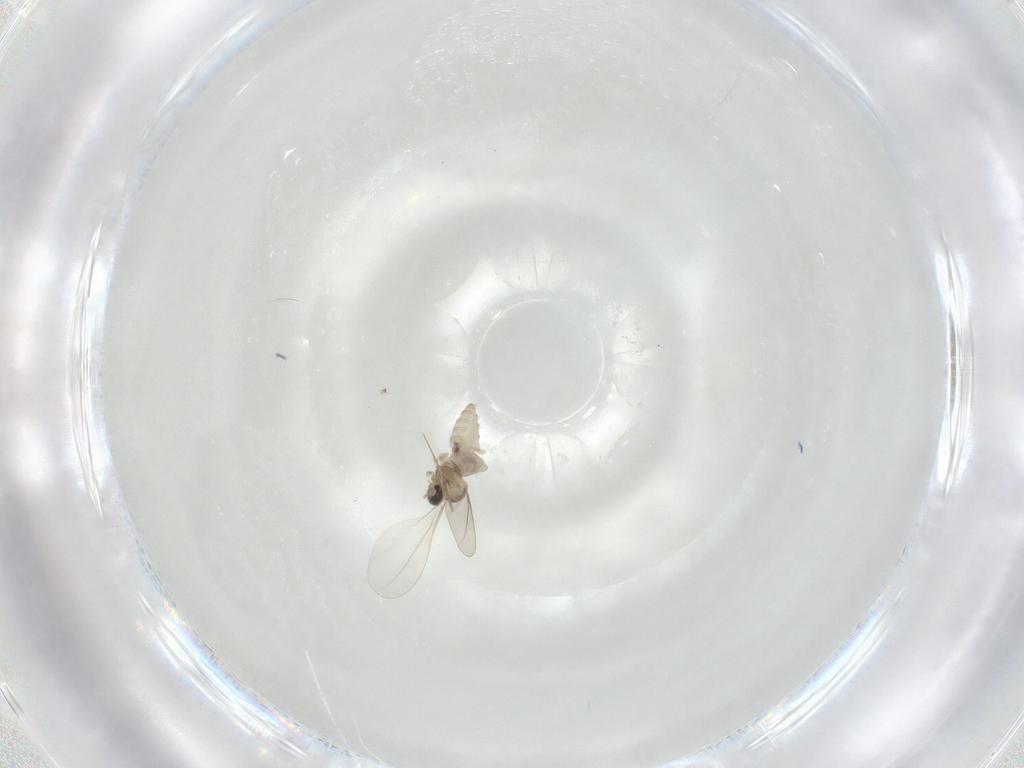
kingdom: Animalia
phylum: Arthropoda
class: Insecta
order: Diptera
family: Cecidomyiidae
